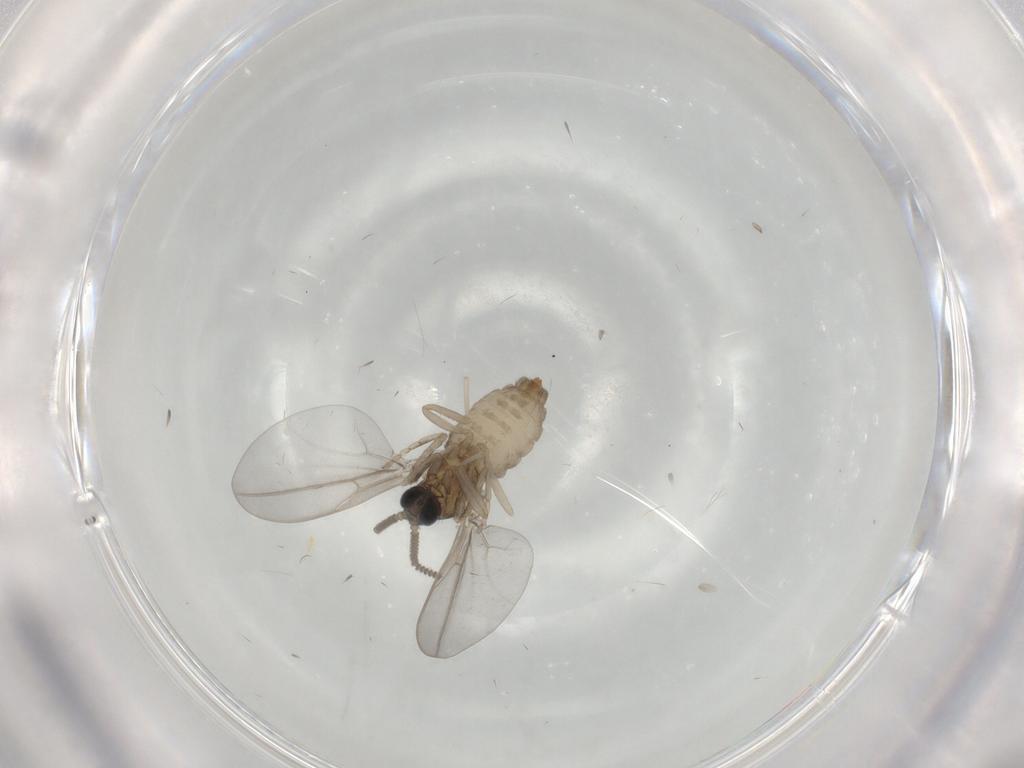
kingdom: Animalia
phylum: Arthropoda
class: Insecta
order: Diptera
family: Cecidomyiidae
